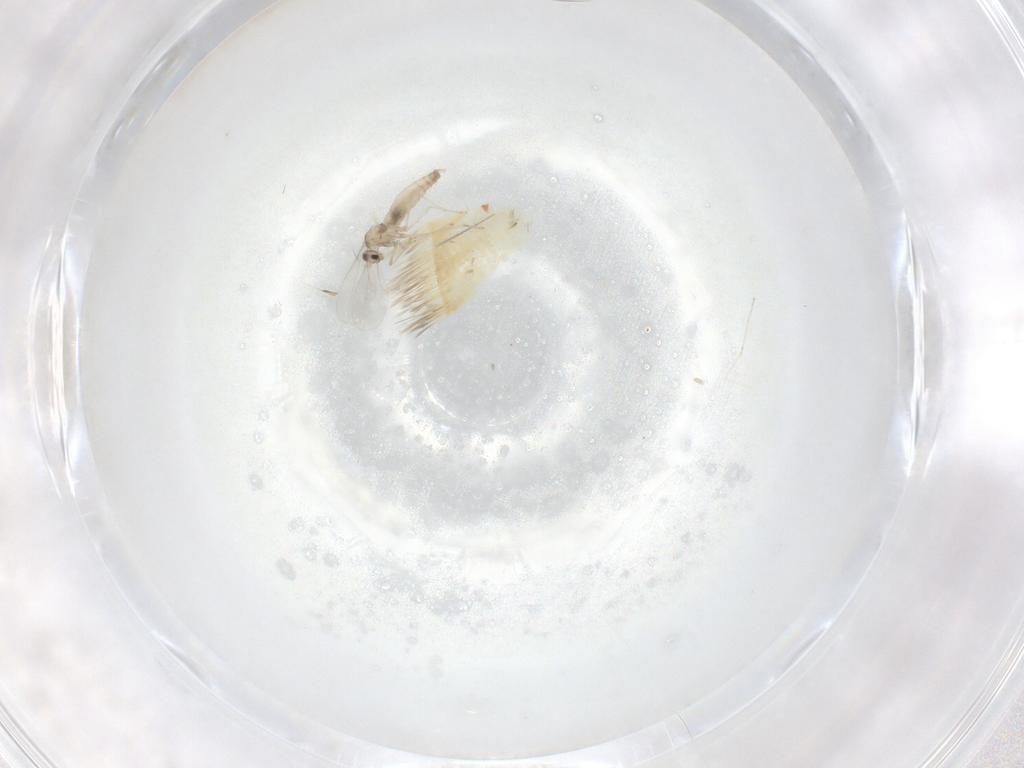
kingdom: Animalia
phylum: Arthropoda
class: Insecta
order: Diptera
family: Cecidomyiidae
